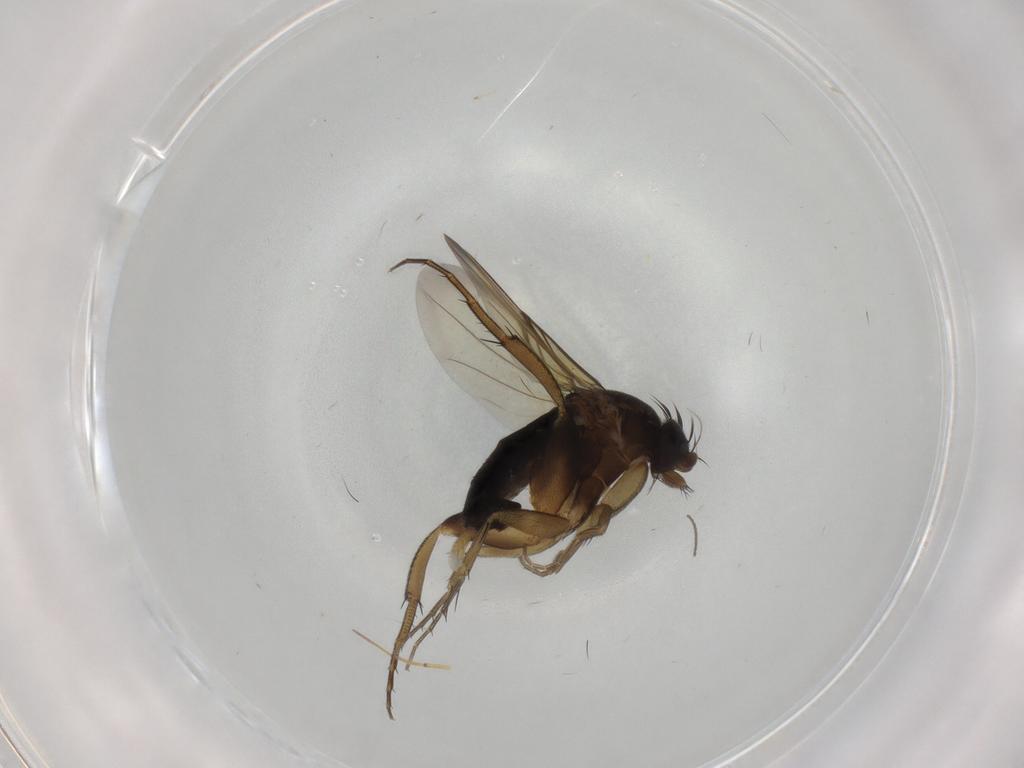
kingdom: Animalia
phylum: Arthropoda
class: Insecta
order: Diptera
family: Phoridae
